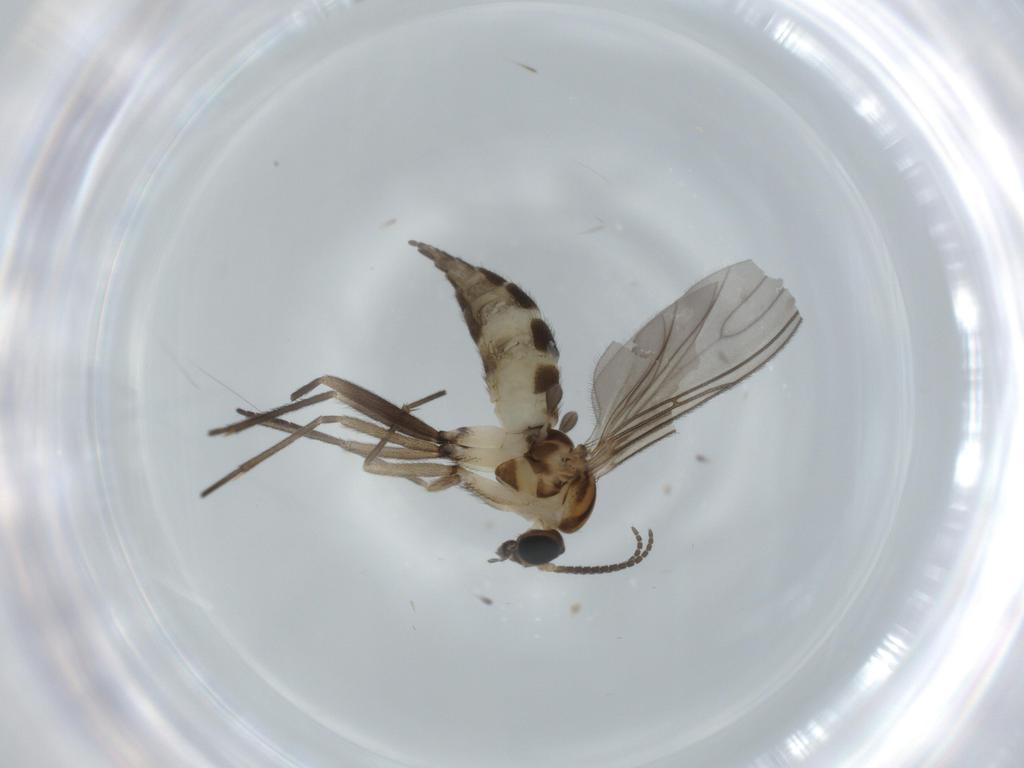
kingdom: Animalia
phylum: Arthropoda
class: Insecta
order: Diptera
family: Sciaridae
